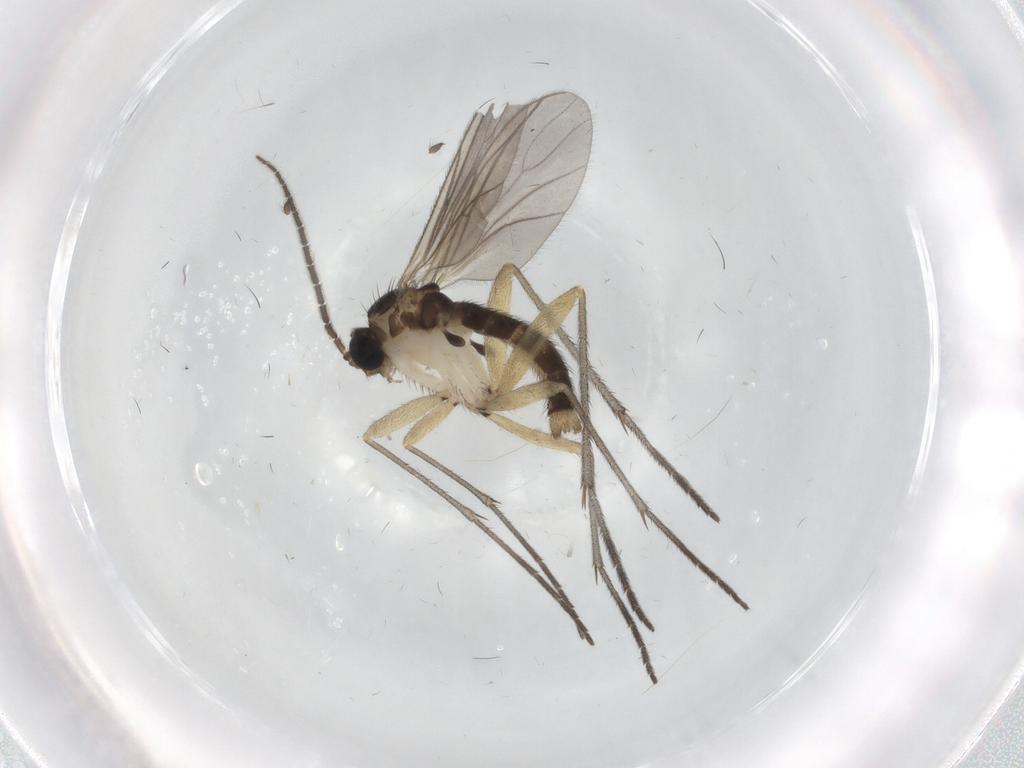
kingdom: Animalia
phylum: Arthropoda
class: Insecta
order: Diptera
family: Sciaridae
